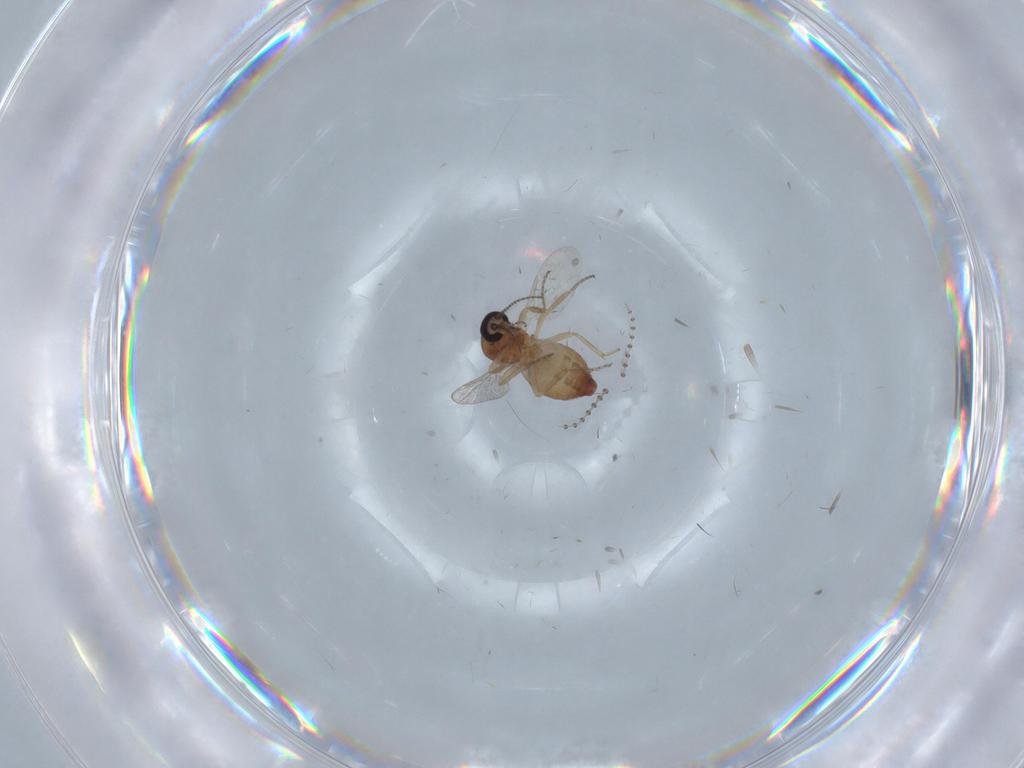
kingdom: Animalia
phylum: Arthropoda
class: Insecta
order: Diptera
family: Ceratopogonidae
